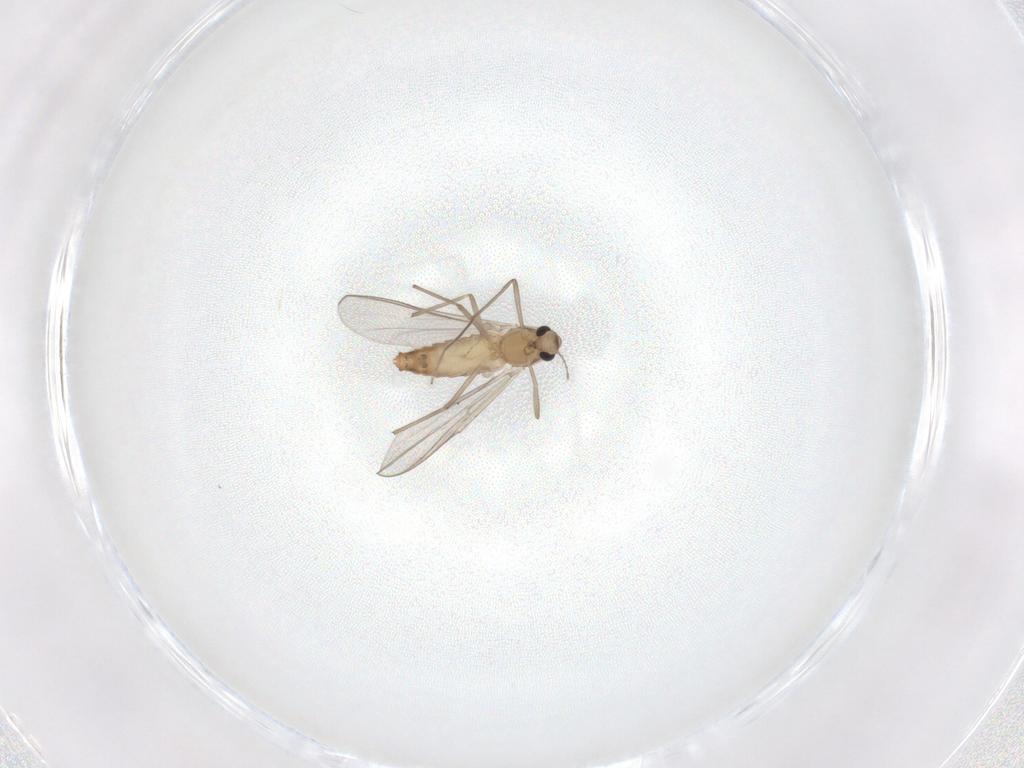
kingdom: Animalia
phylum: Arthropoda
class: Insecta
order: Diptera
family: Chironomidae
